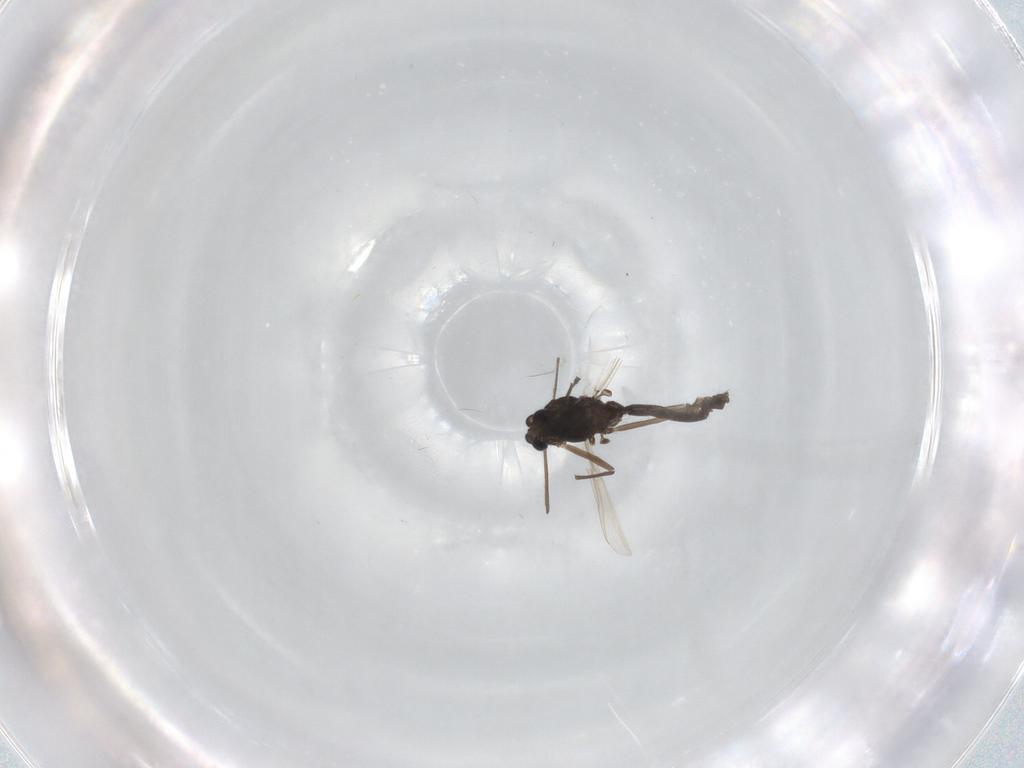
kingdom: Animalia
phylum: Arthropoda
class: Insecta
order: Diptera
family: Chironomidae
